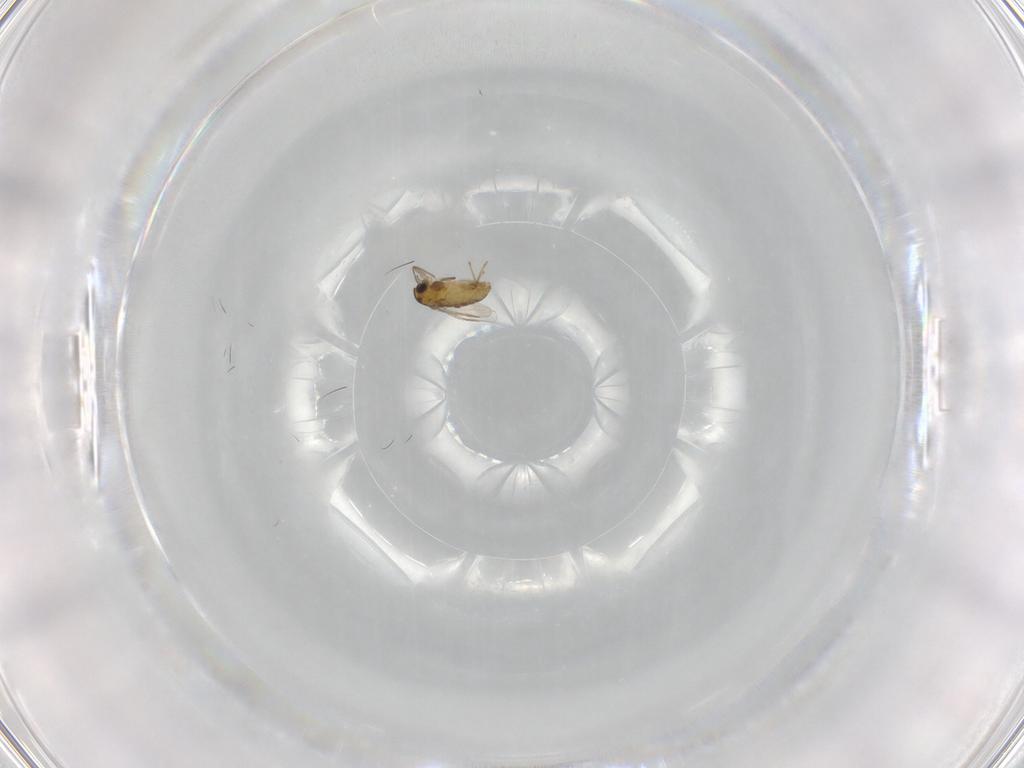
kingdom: Animalia
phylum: Arthropoda
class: Insecta
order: Diptera
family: Chironomidae
